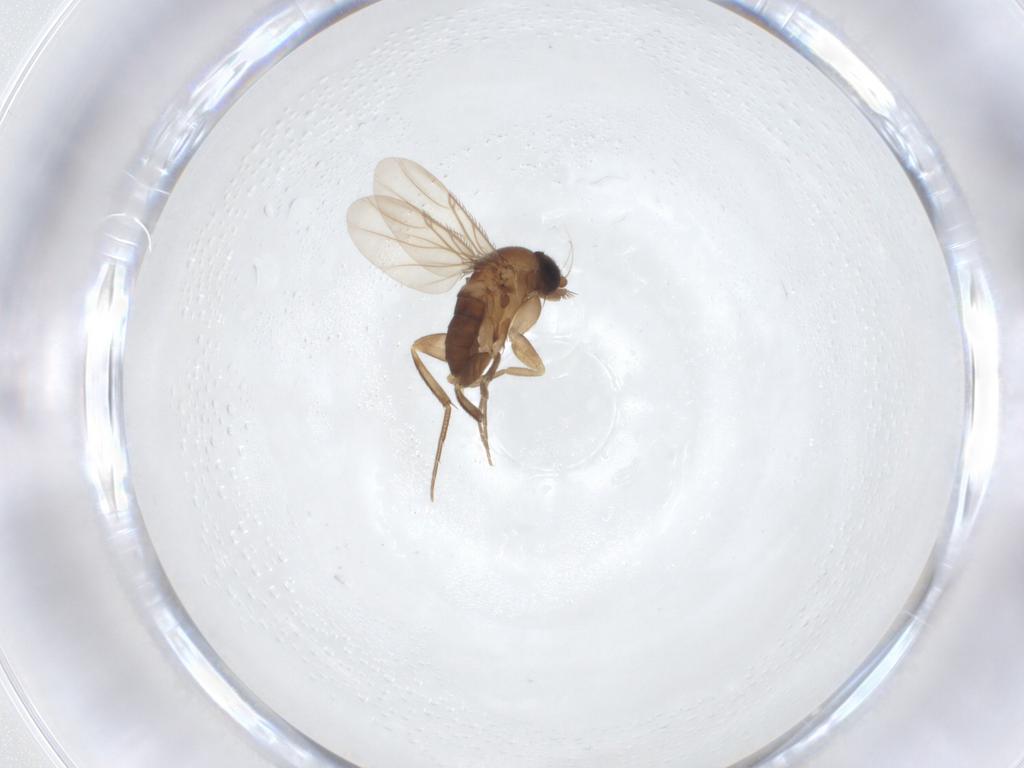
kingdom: Animalia
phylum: Arthropoda
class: Insecta
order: Diptera
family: Phoridae
